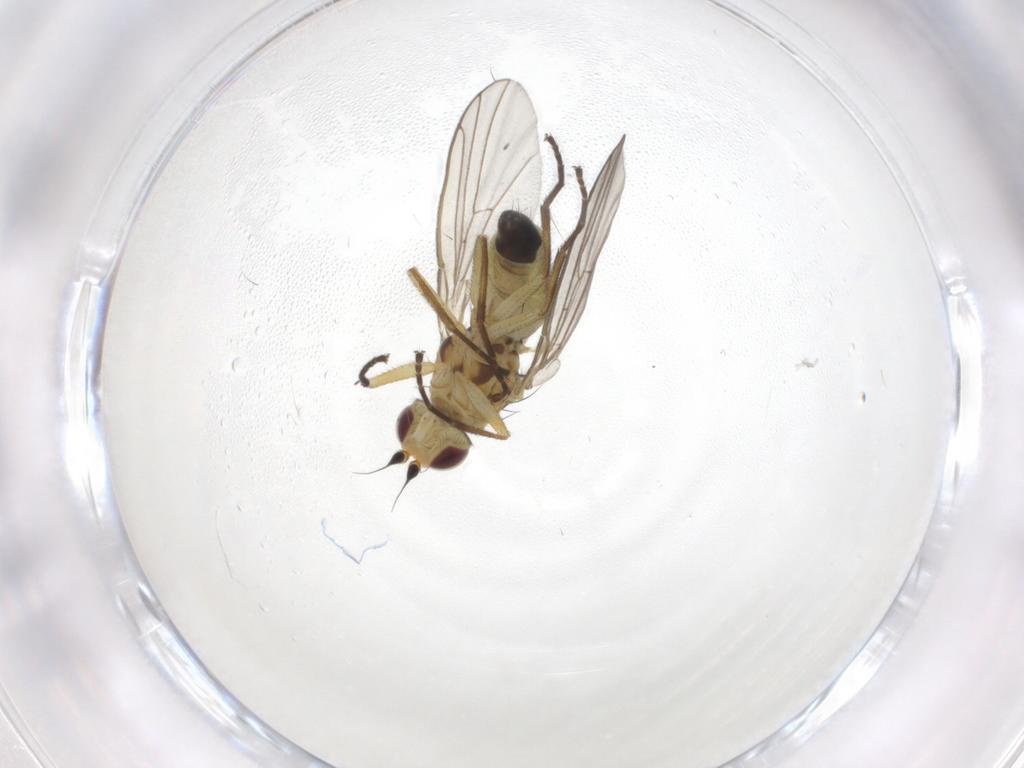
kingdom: Animalia
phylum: Arthropoda
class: Insecta
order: Diptera
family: Agromyzidae
